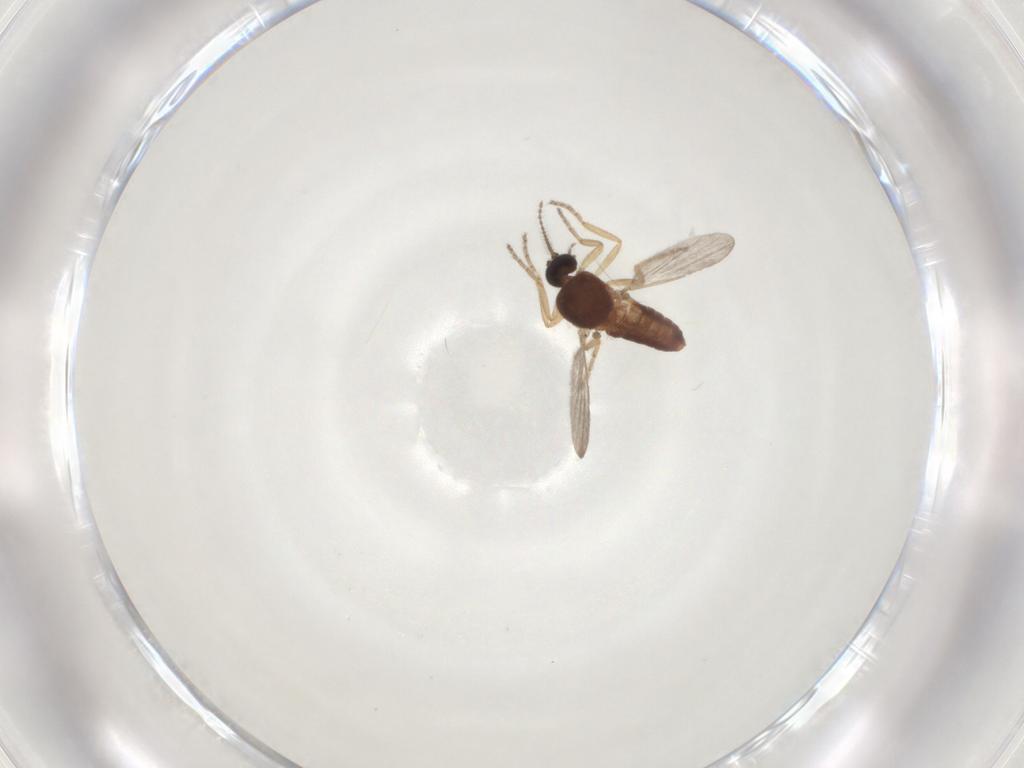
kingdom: Animalia
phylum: Arthropoda
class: Insecta
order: Diptera
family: Ceratopogonidae
